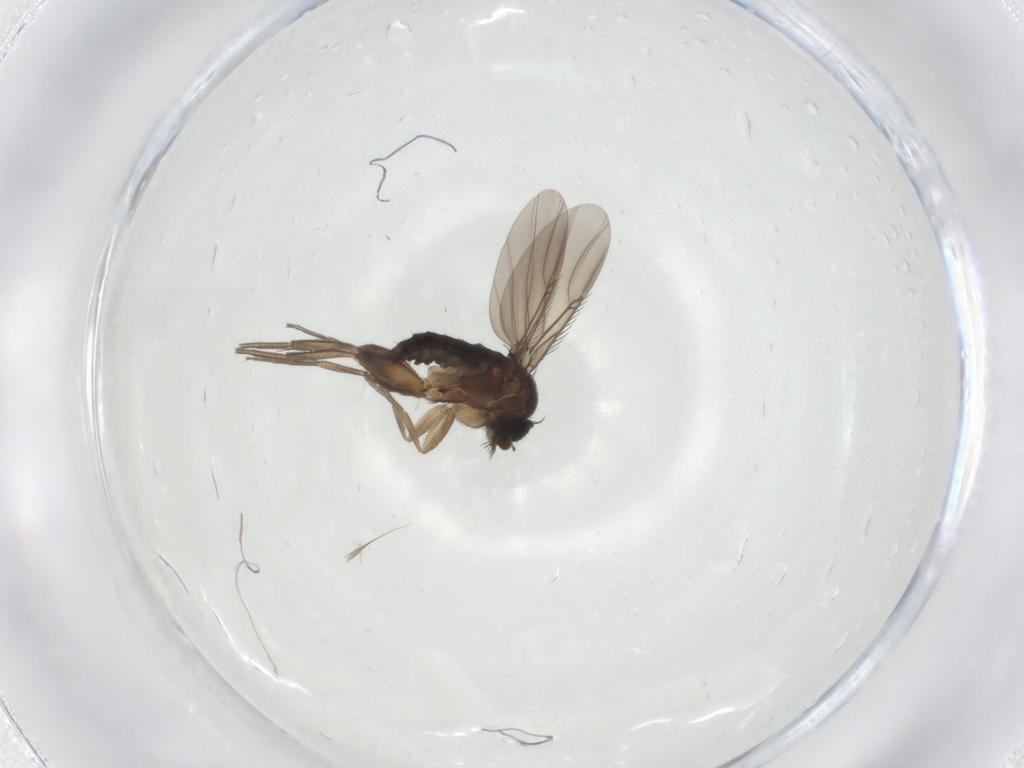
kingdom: Animalia
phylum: Arthropoda
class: Insecta
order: Diptera
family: Phoridae
